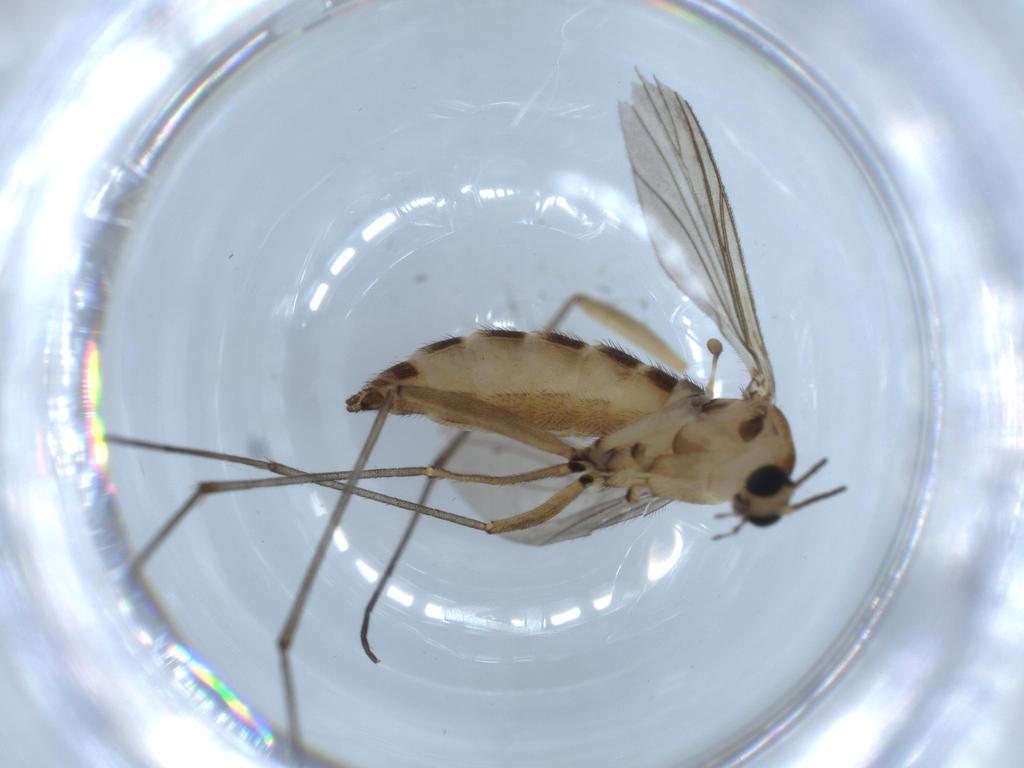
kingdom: Animalia
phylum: Arthropoda
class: Insecta
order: Diptera
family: Sciaridae
